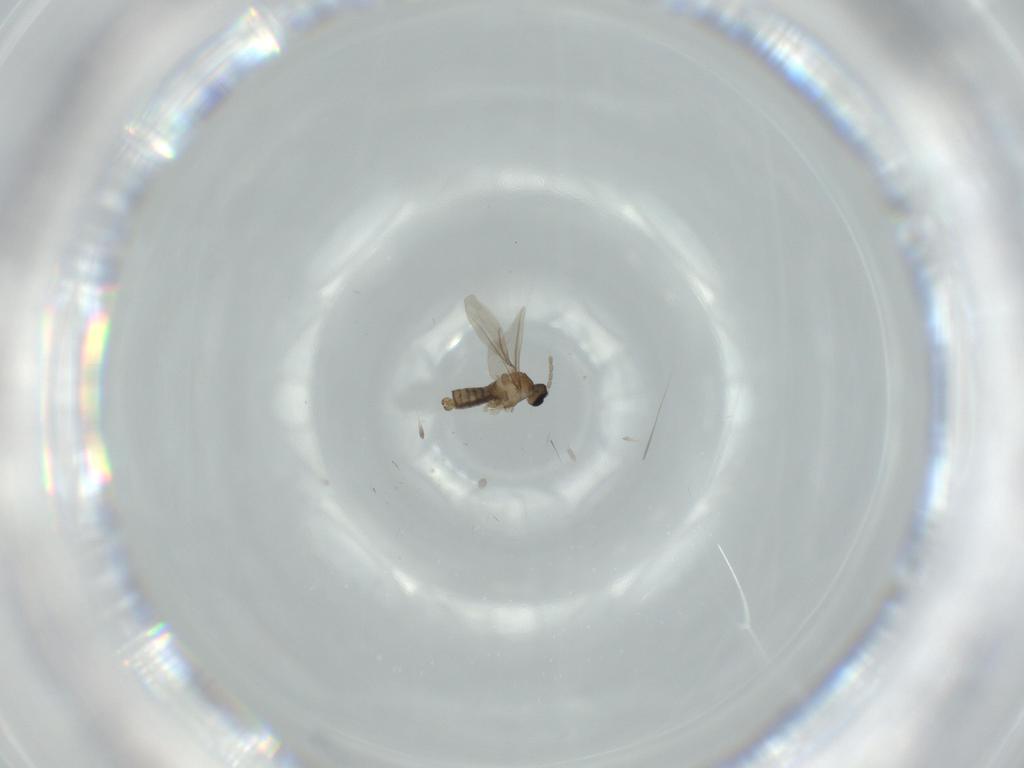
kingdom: Animalia
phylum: Arthropoda
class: Insecta
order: Diptera
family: Cecidomyiidae
